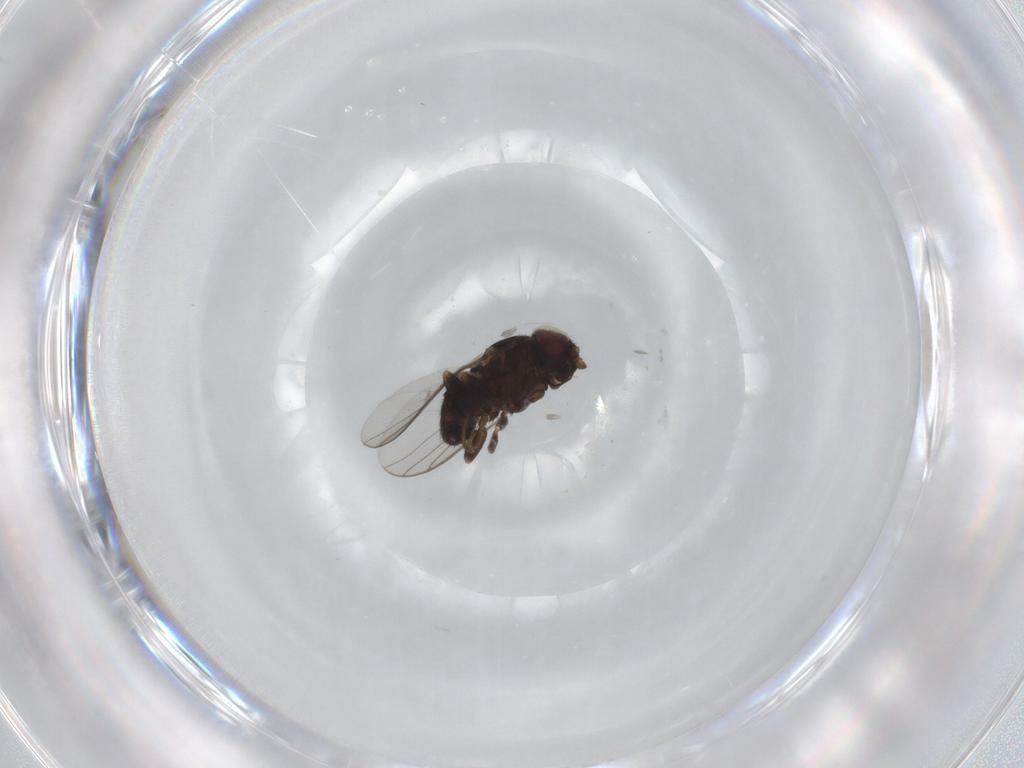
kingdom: Animalia
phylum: Arthropoda
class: Insecta
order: Diptera
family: Chloropidae
